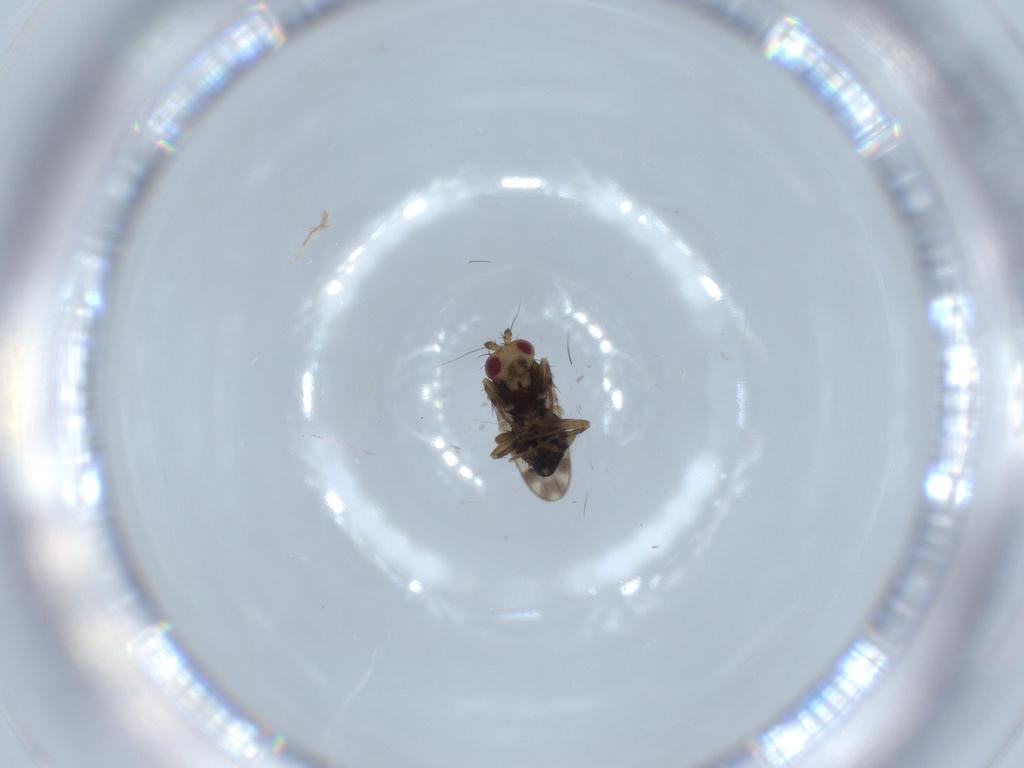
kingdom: Animalia
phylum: Arthropoda
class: Insecta
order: Diptera
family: Sphaeroceridae
